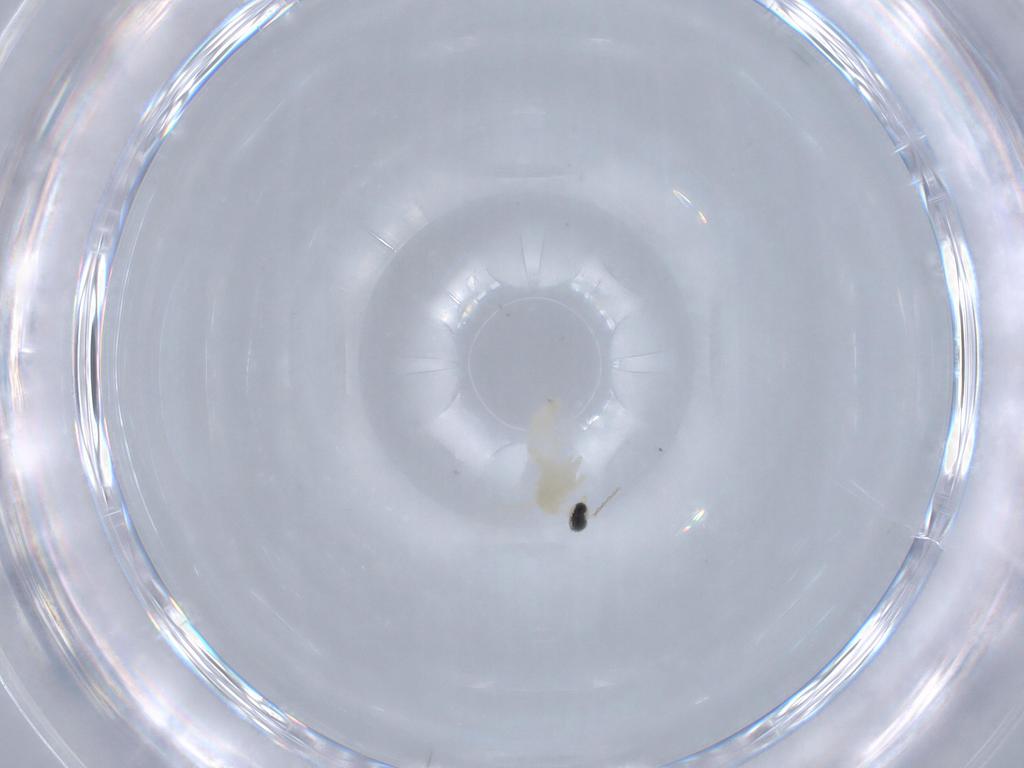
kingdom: Animalia
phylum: Arthropoda
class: Insecta
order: Diptera
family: Cecidomyiidae
